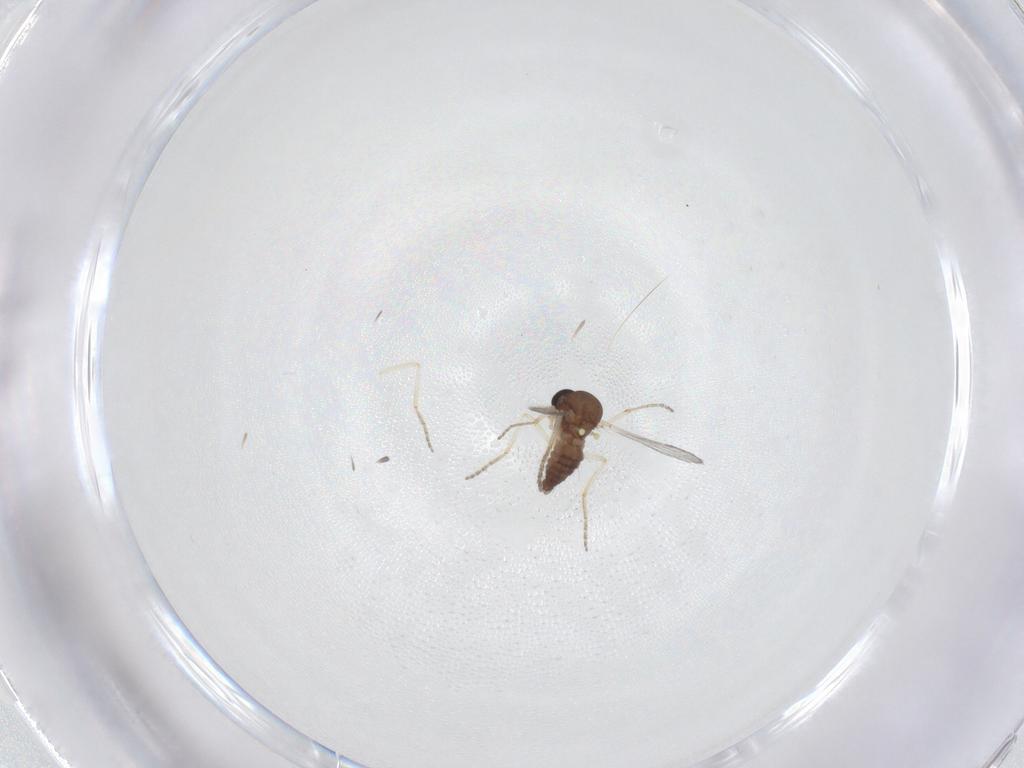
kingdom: Animalia
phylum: Arthropoda
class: Insecta
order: Diptera
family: Ceratopogonidae
